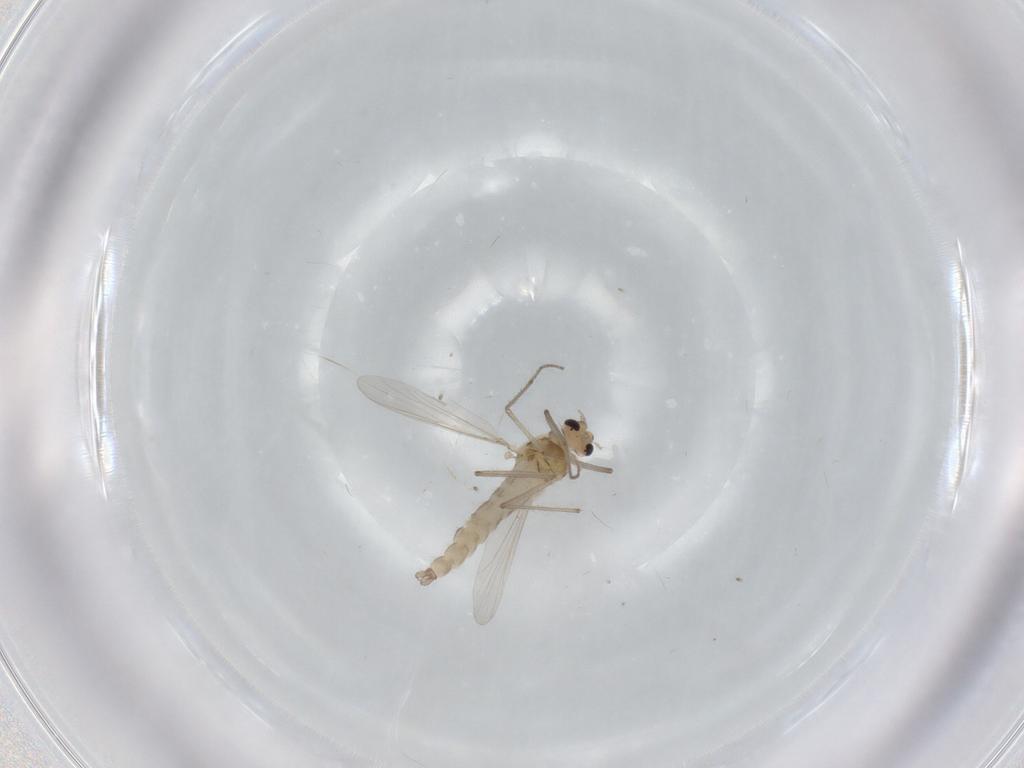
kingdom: Animalia
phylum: Arthropoda
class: Insecta
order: Diptera
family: Chironomidae
